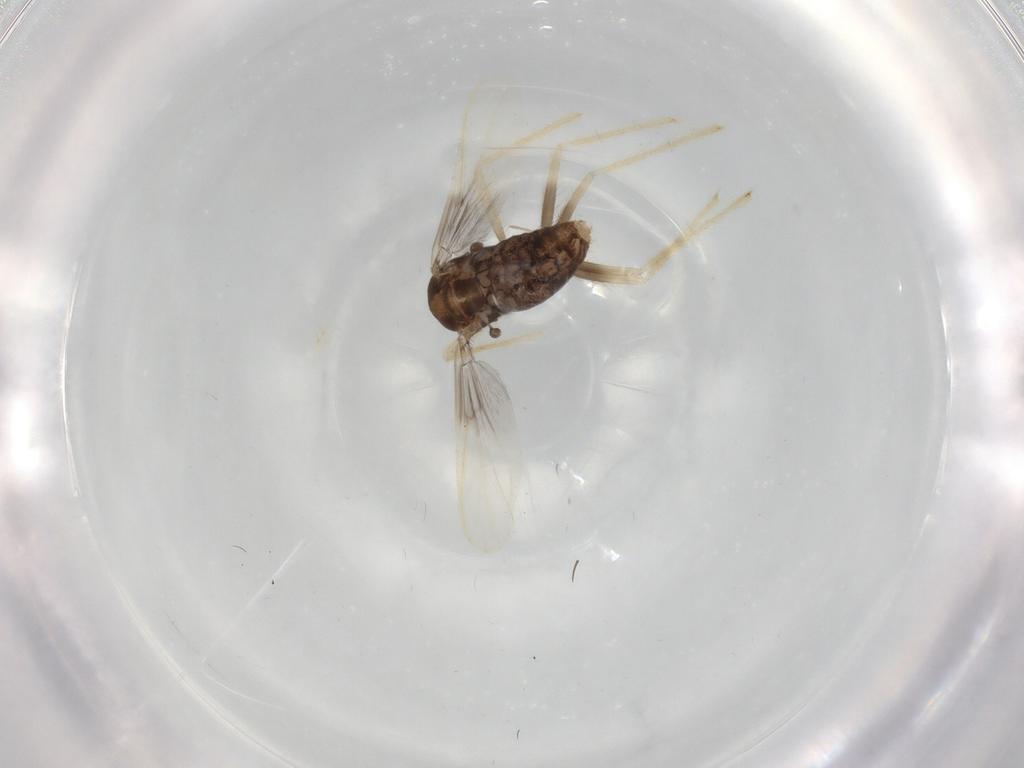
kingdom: Animalia
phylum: Arthropoda
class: Insecta
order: Diptera
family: Chironomidae
